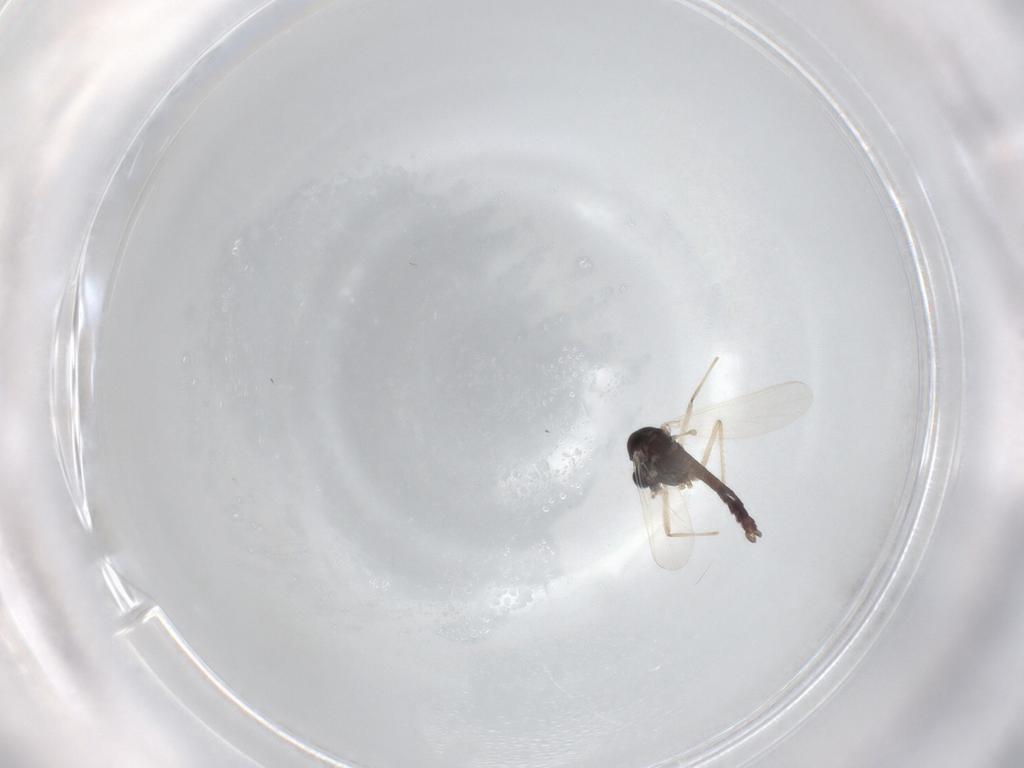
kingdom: Animalia
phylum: Arthropoda
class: Insecta
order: Diptera
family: Chironomidae
